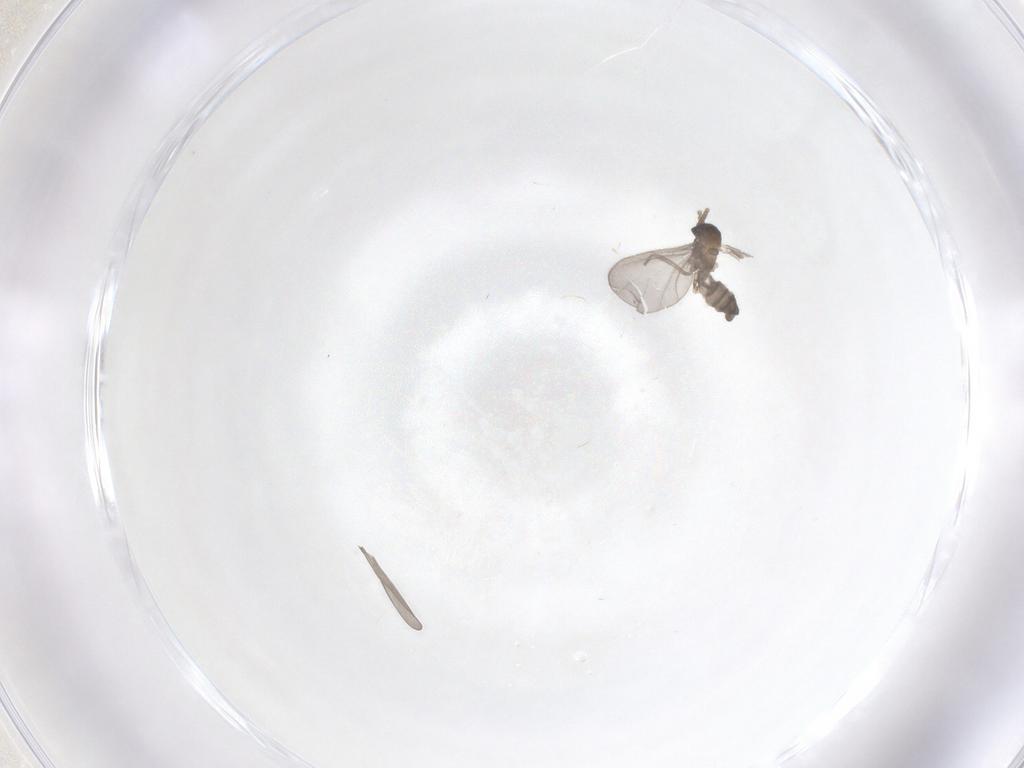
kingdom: Animalia
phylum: Arthropoda
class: Insecta
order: Diptera
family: Sciaridae
